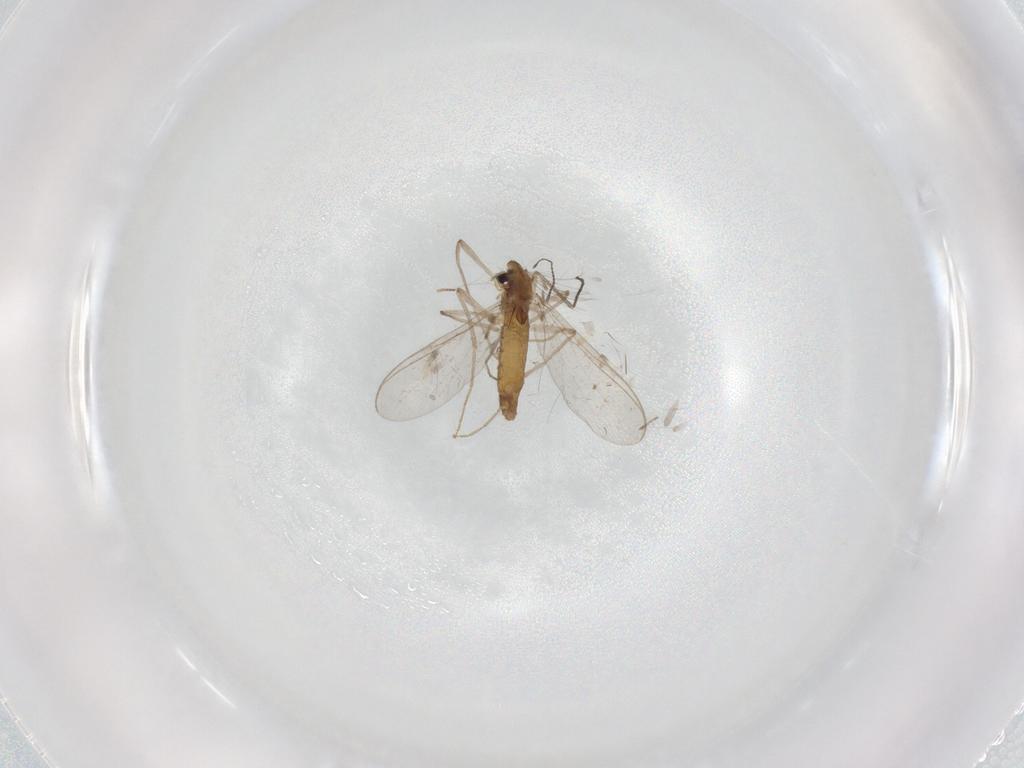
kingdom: Animalia
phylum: Arthropoda
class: Insecta
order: Diptera
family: Chironomidae
